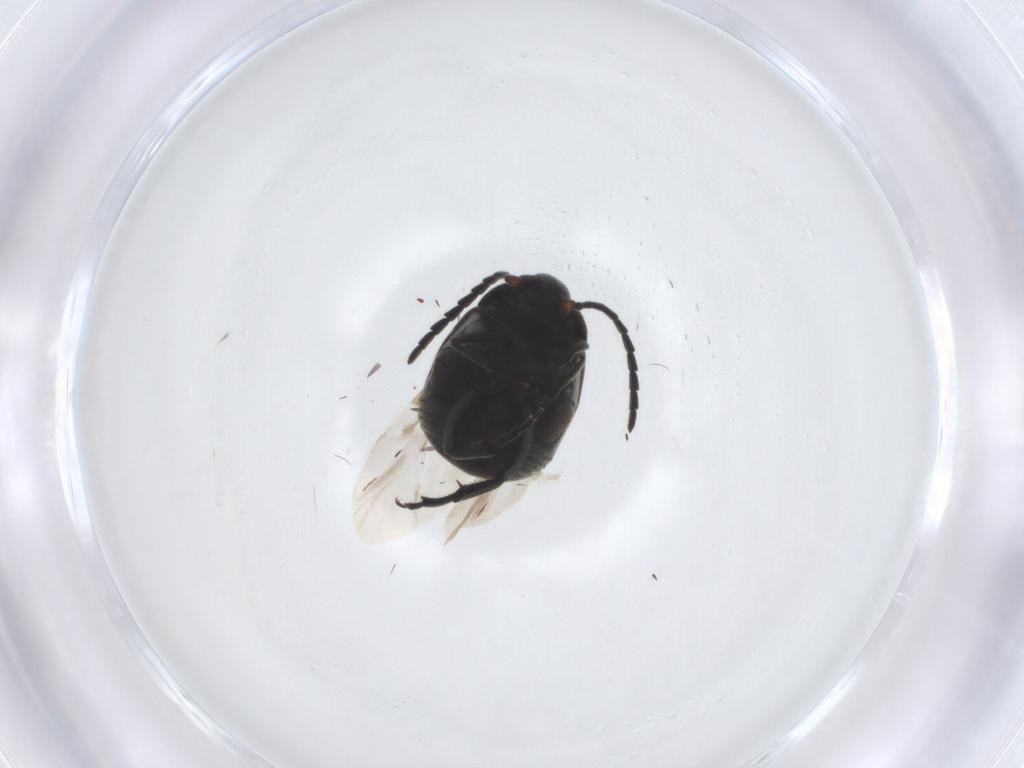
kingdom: Animalia
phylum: Arthropoda
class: Insecta
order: Coleoptera
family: Chrysomelidae
